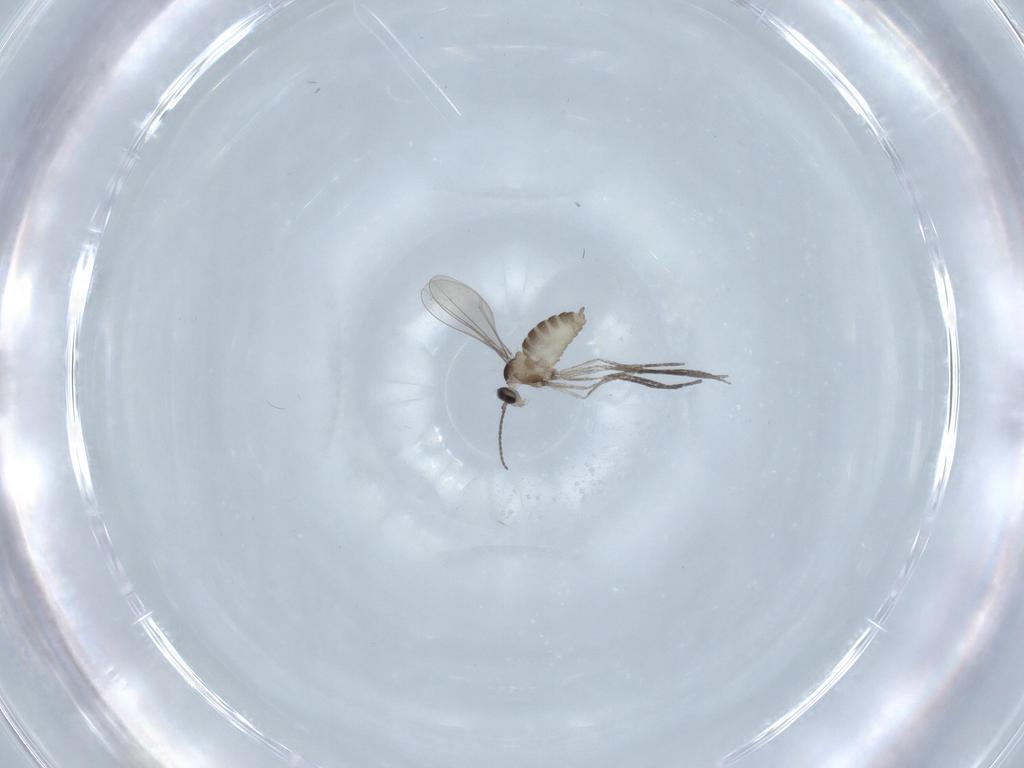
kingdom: Animalia
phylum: Arthropoda
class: Insecta
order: Diptera
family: Cecidomyiidae
